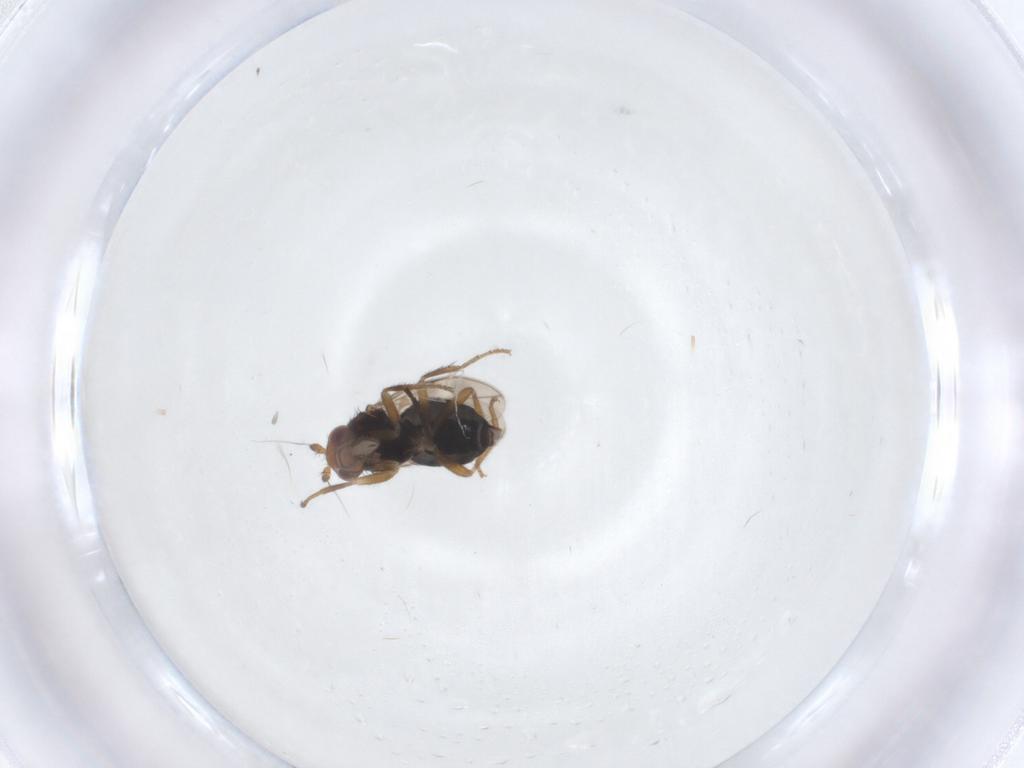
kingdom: Animalia
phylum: Arthropoda
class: Insecta
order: Diptera
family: Sphaeroceridae
